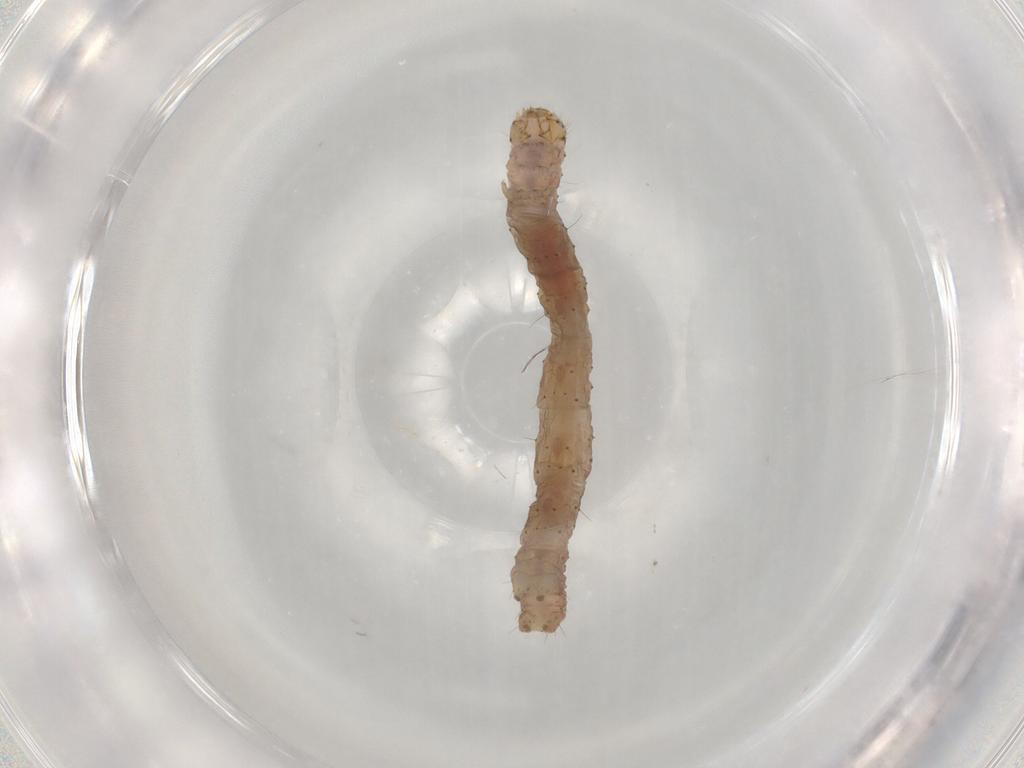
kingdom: Animalia
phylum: Arthropoda
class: Insecta
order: Lepidoptera
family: Geometridae
